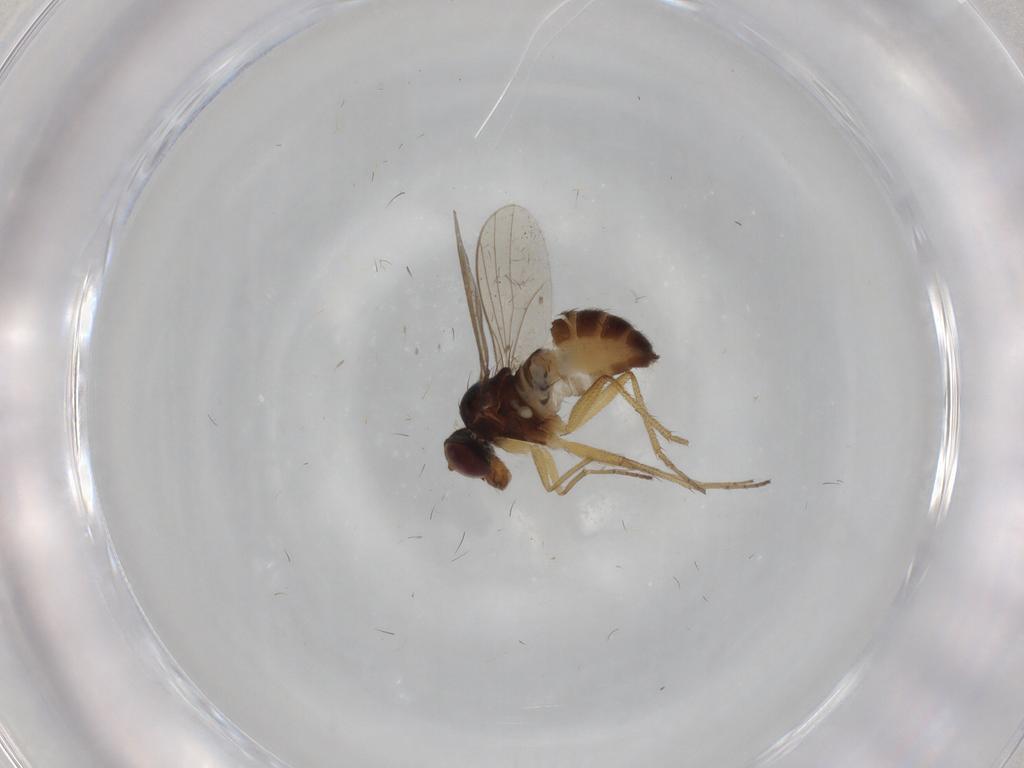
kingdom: Animalia
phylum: Arthropoda
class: Insecta
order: Diptera
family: Dolichopodidae
